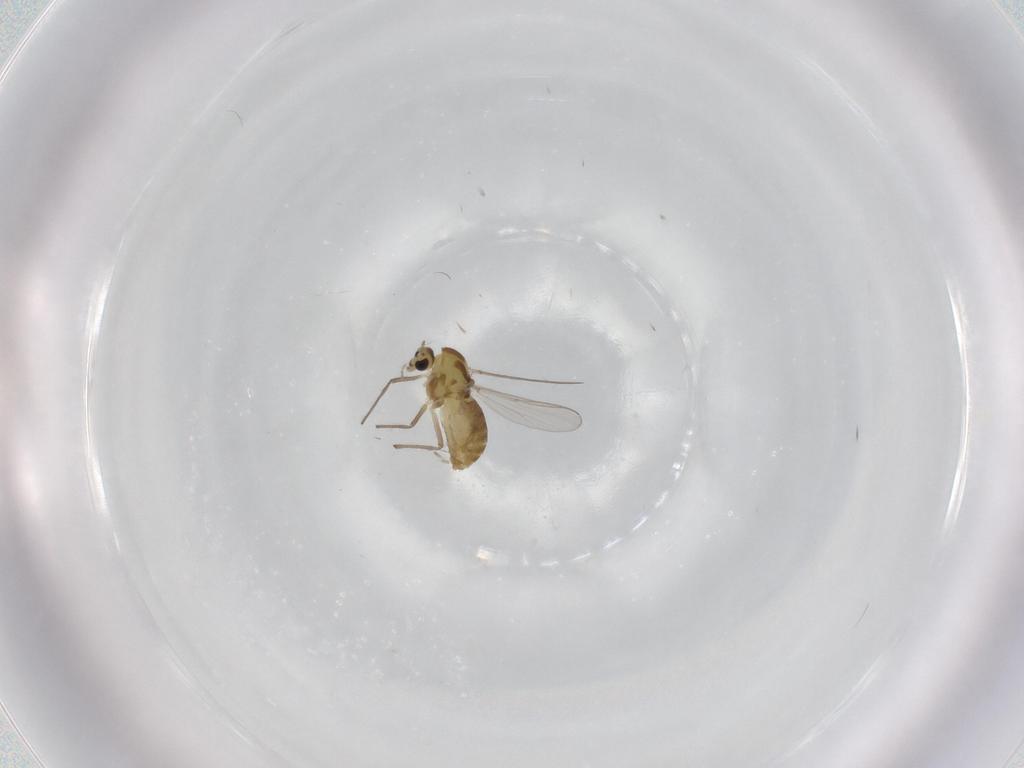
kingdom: Animalia
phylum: Arthropoda
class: Insecta
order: Diptera
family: Chironomidae
